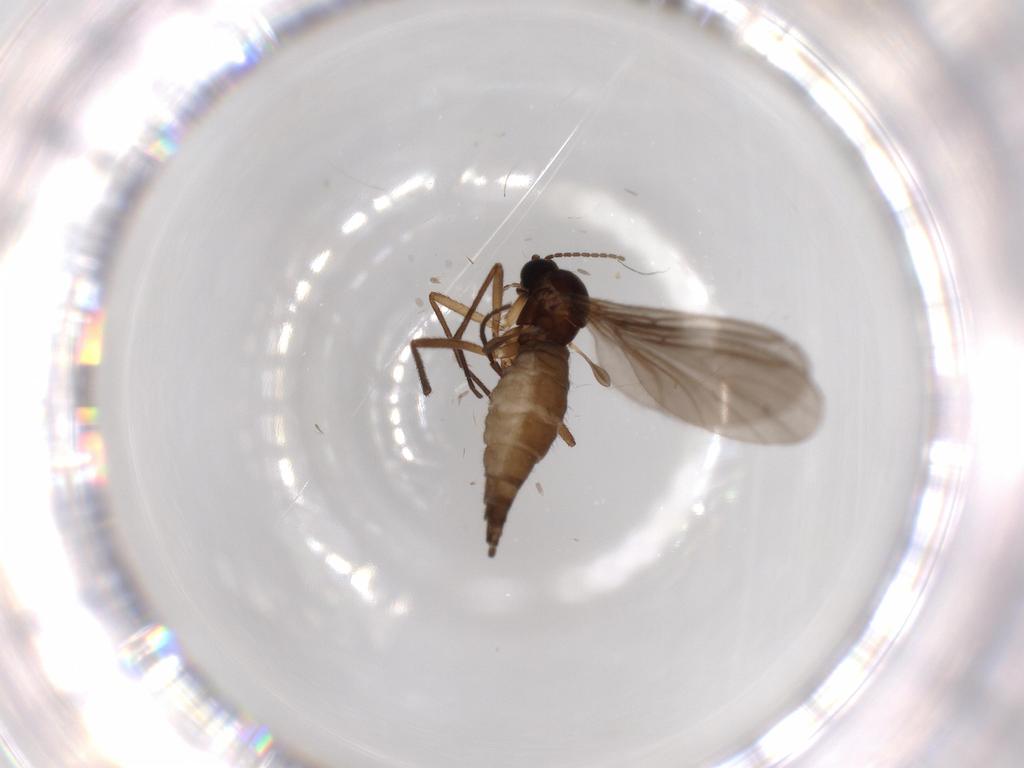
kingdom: Animalia
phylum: Arthropoda
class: Insecta
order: Diptera
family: Sciaridae
